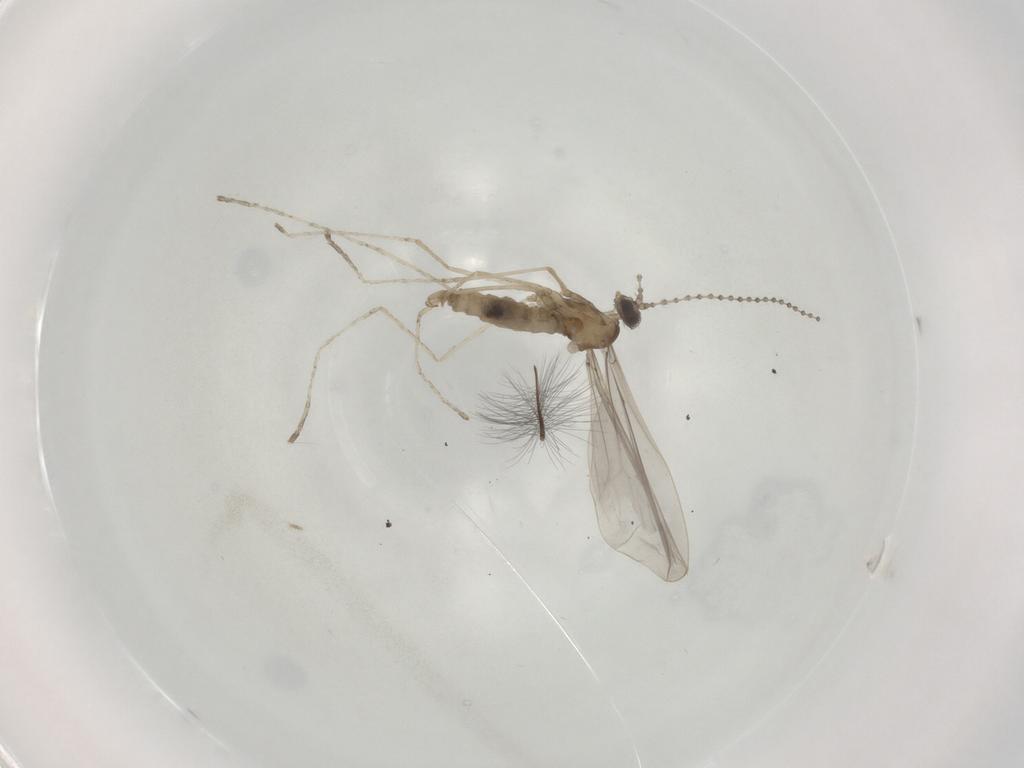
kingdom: Animalia
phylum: Arthropoda
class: Insecta
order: Diptera
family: Cecidomyiidae
